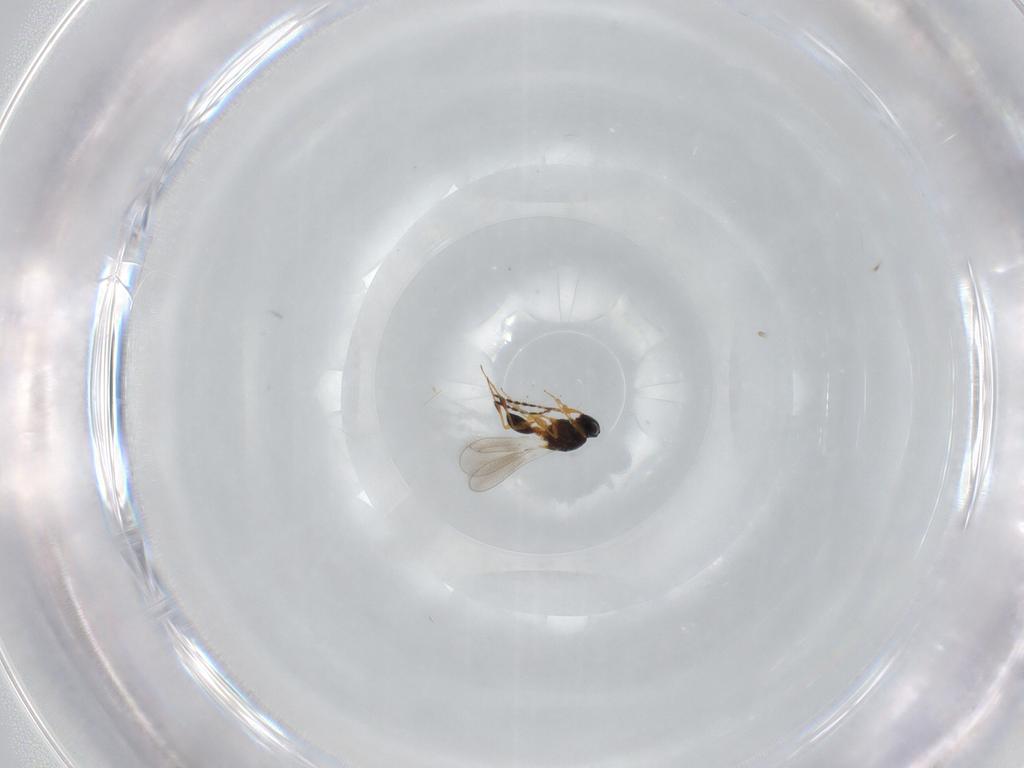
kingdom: Animalia
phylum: Arthropoda
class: Insecta
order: Hymenoptera
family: Platygastridae
